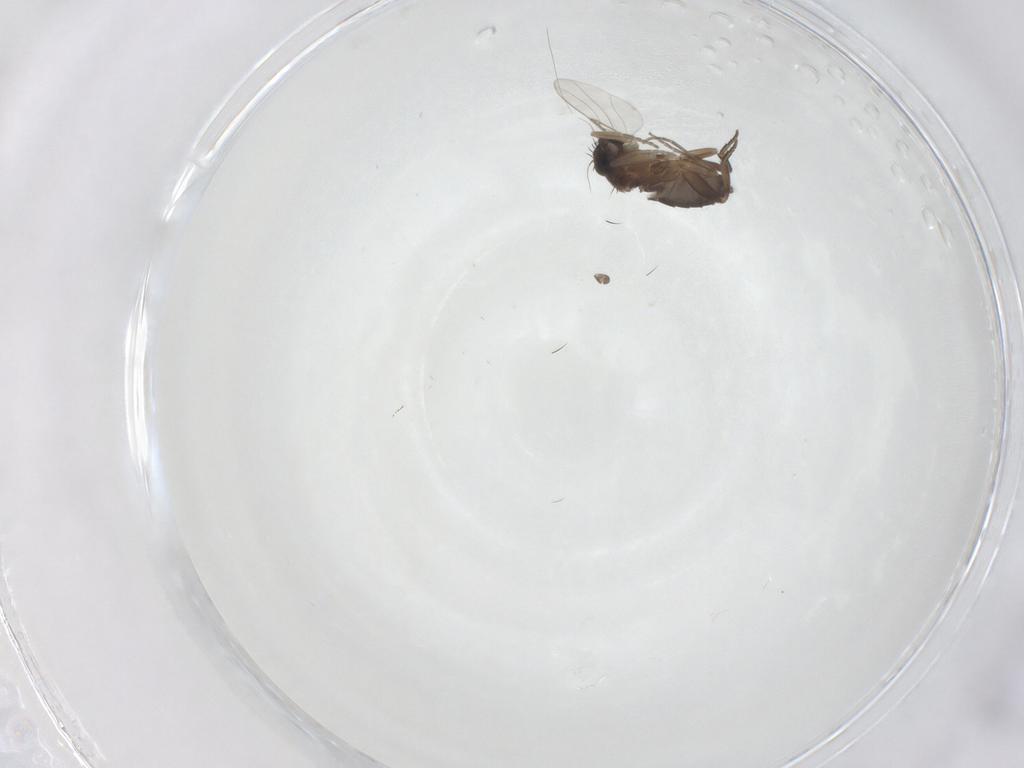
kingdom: Animalia
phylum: Arthropoda
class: Insecta
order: Diptera
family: Phoridae
